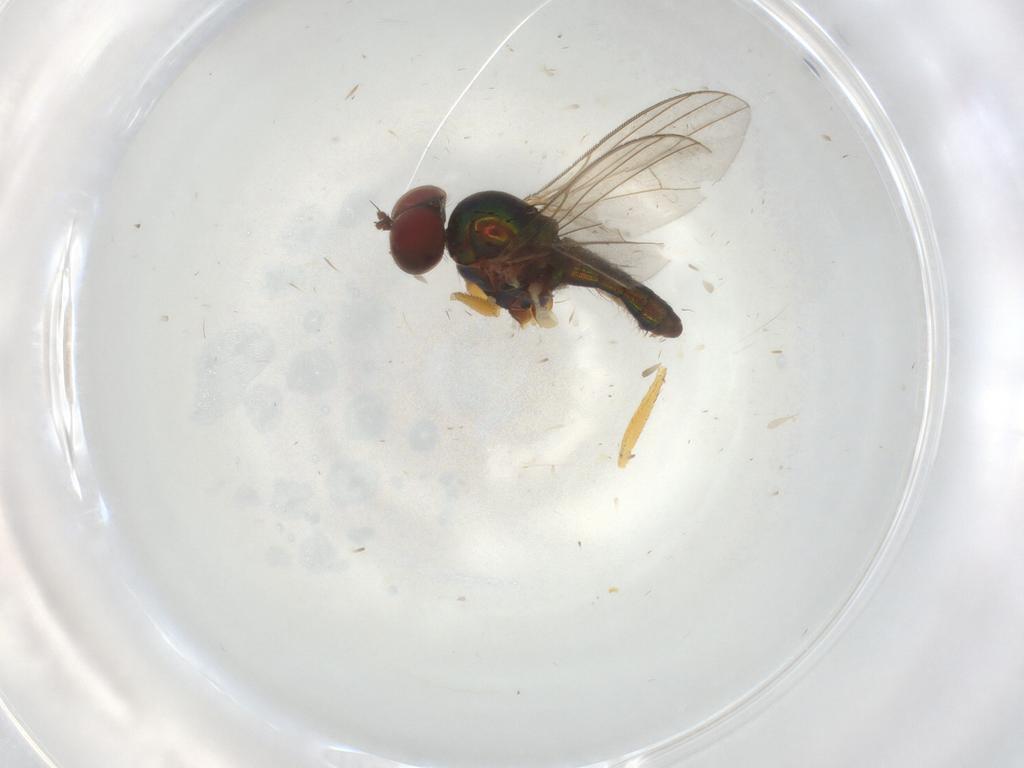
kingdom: Animalia
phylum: Arthropoda
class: Insecta
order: Diptera
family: Dolichopodidae
